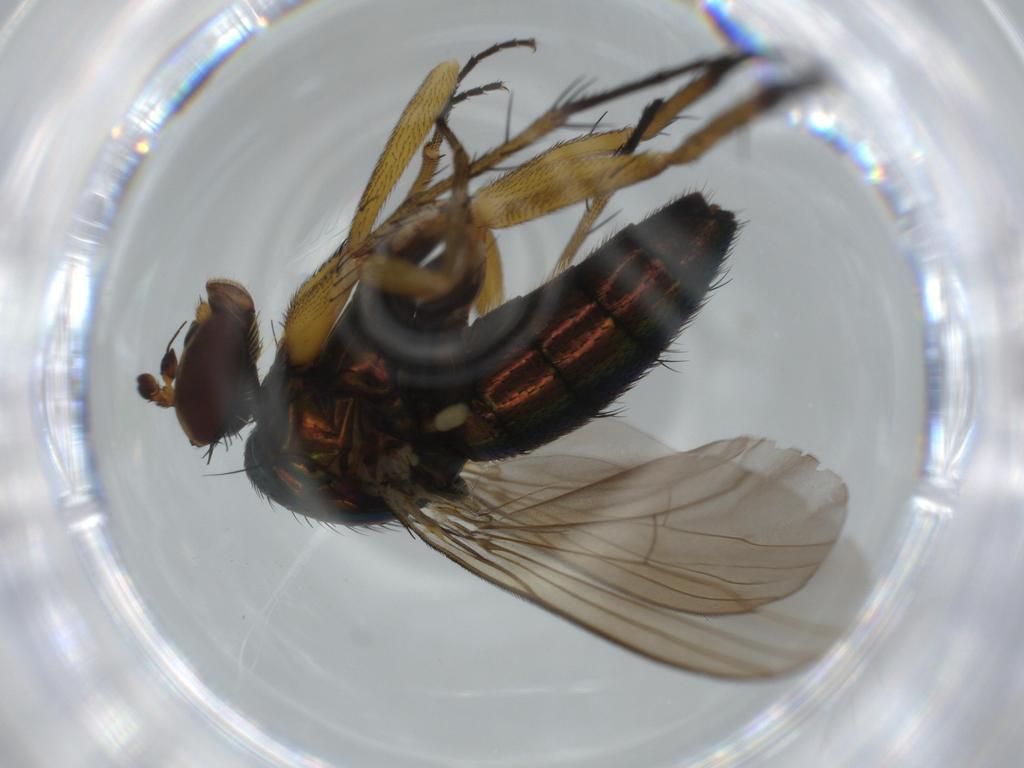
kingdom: Animalia
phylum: Arthropoda
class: Insecta
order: Diptera
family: Dolichopodidae
